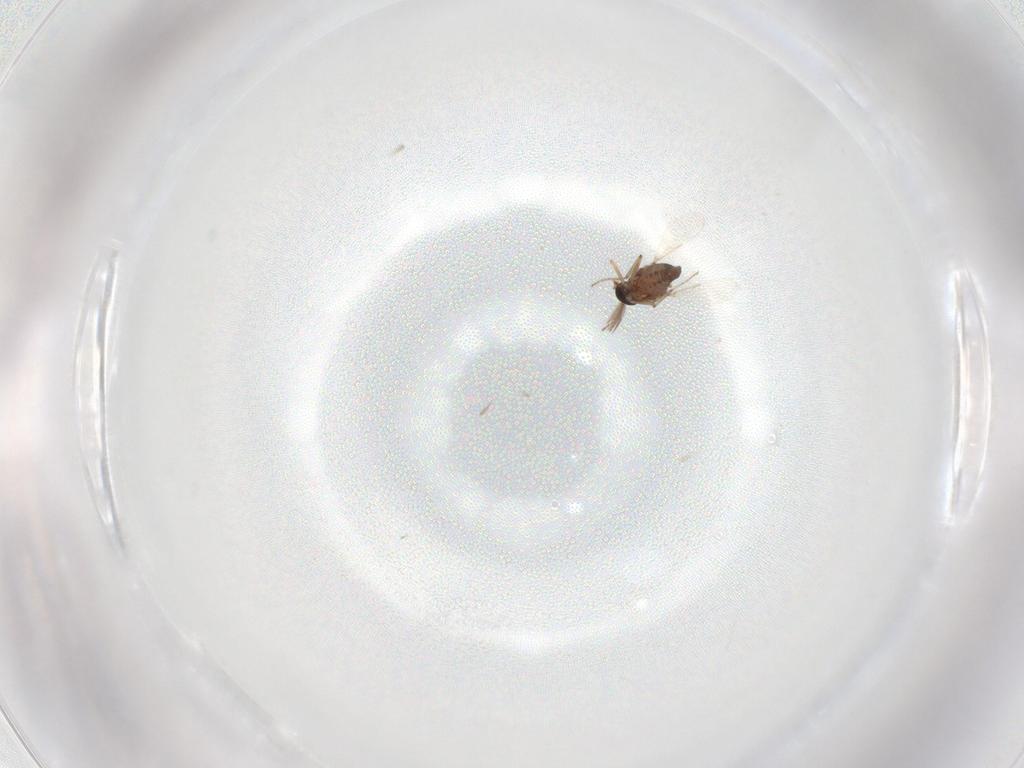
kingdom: Animalia
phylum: Arthropoda
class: Insecta
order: Diptera
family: Ceratopogonidae
